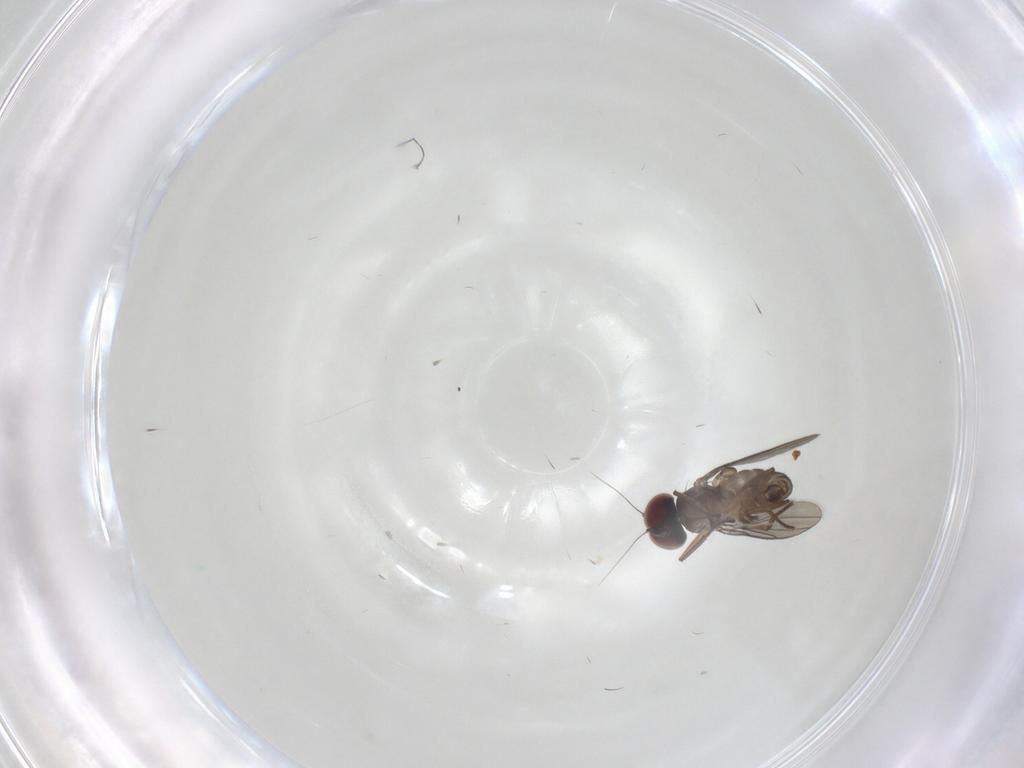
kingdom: Animalia
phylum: Arthropoda
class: Insecta
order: Diptera
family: Dolichopodidae
